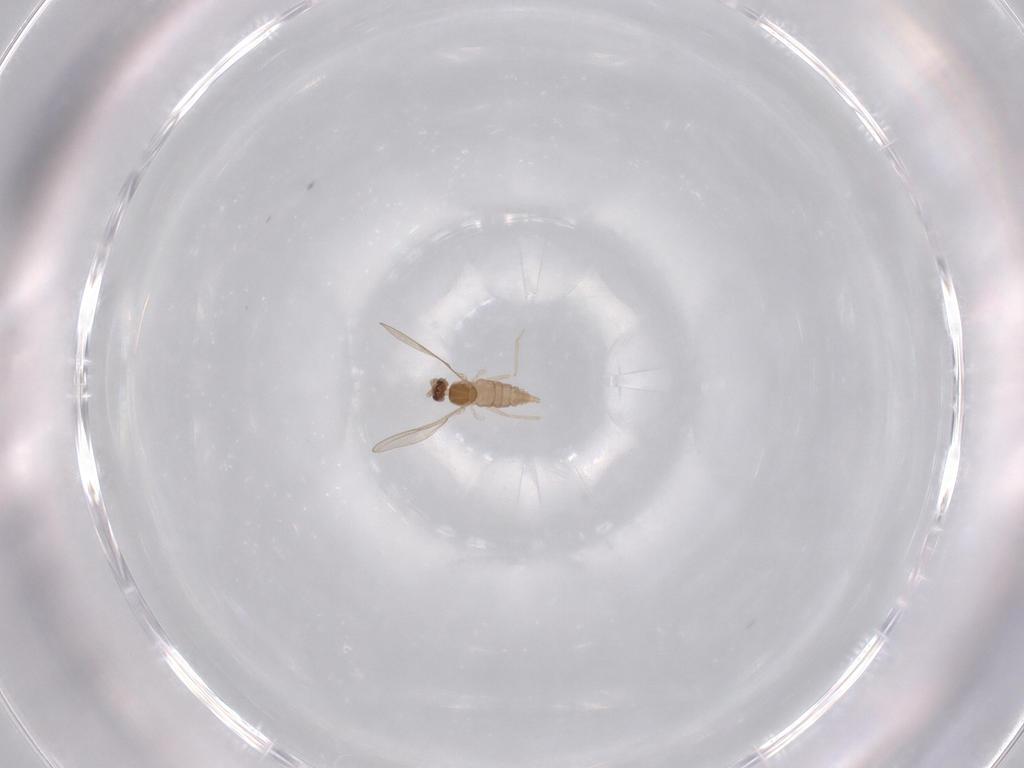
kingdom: Animalia
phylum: Arthropoda
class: Insecta
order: Diptera
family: Cecidomyiidae
